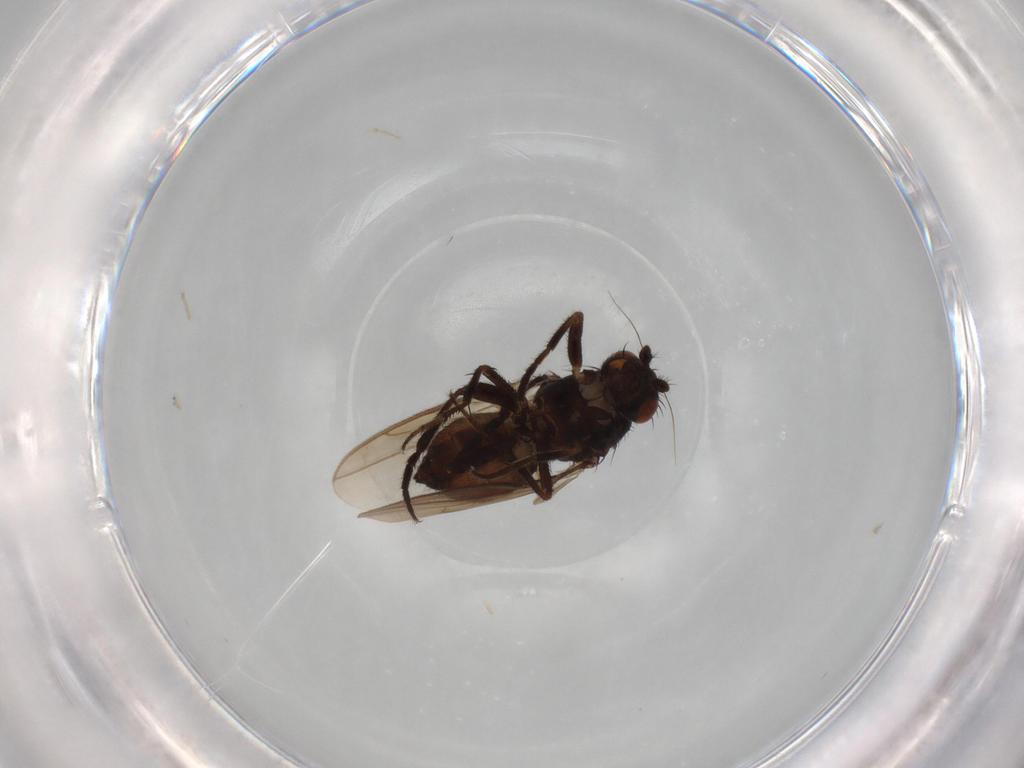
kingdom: Animalia
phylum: Arthropoda
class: Insecta
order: Diptera
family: Sphaeroceridae
